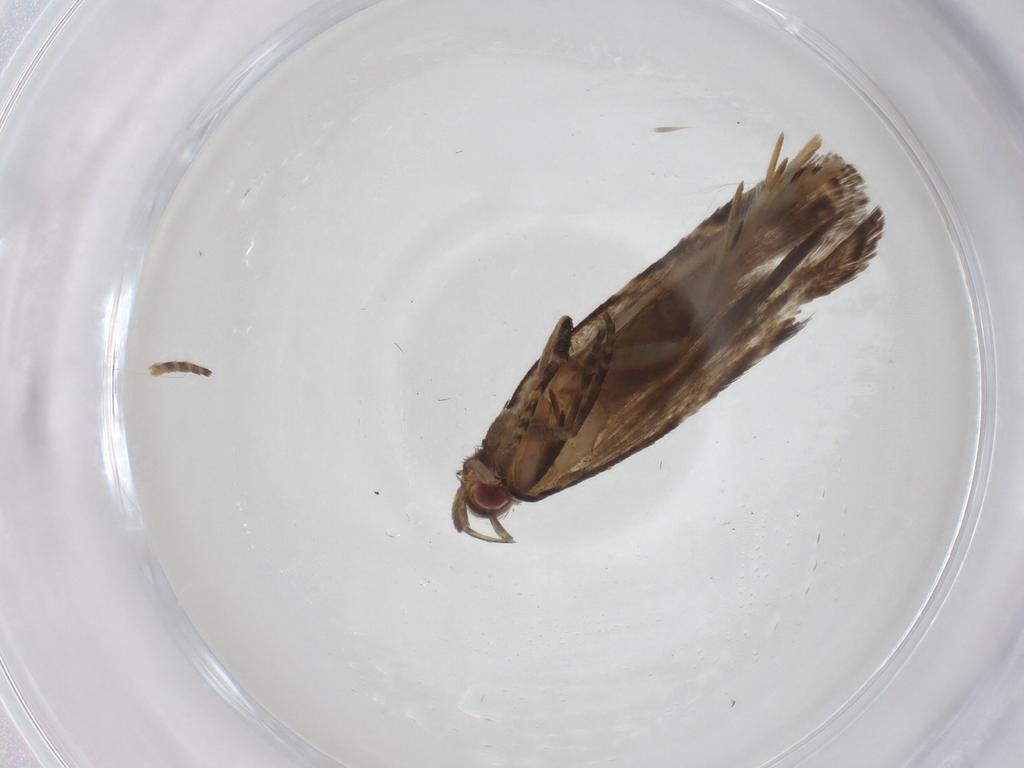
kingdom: Animalia
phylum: Arthropoda
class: Insecta
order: Lepidoptera
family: Gelechiidae
